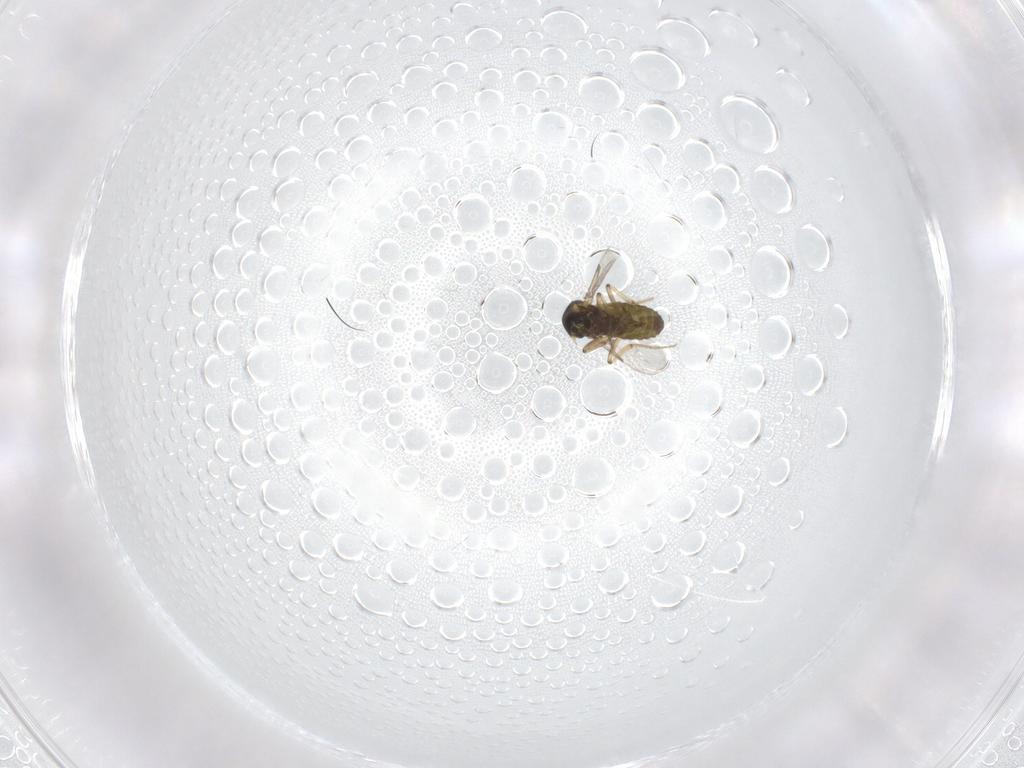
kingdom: Animalia
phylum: Arthropoda
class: Insecta
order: Diptera
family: Ceratopogonidae
